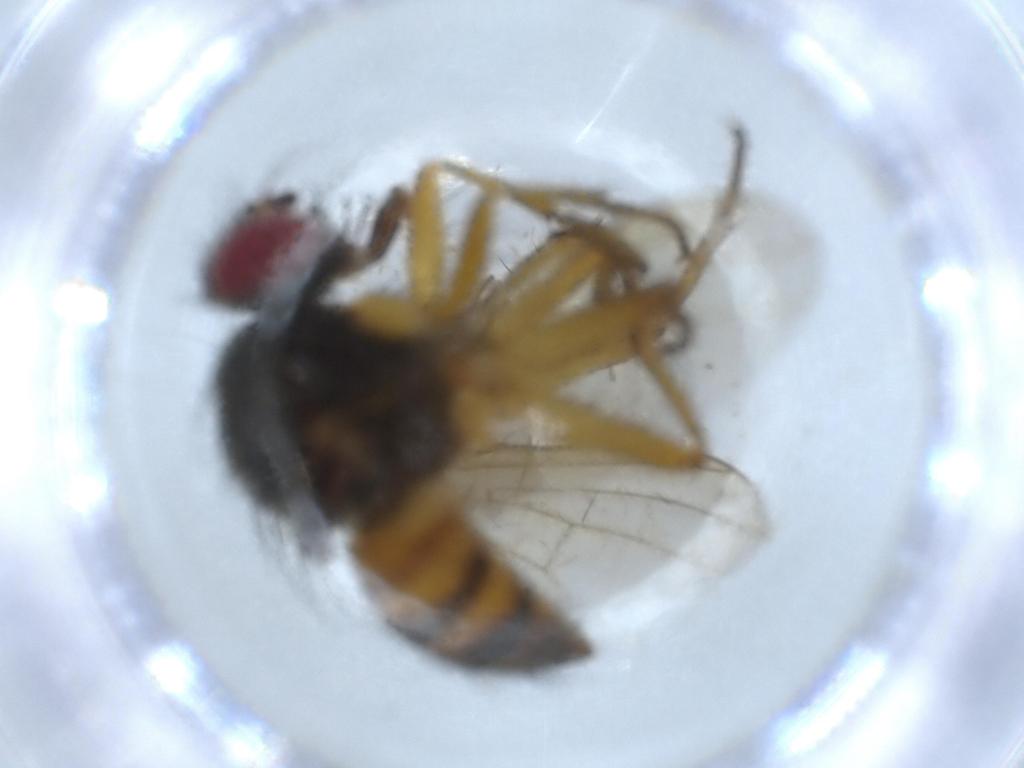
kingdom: Animalia
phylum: Arthropoda
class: Insecta
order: Diptera
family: Muscidae
